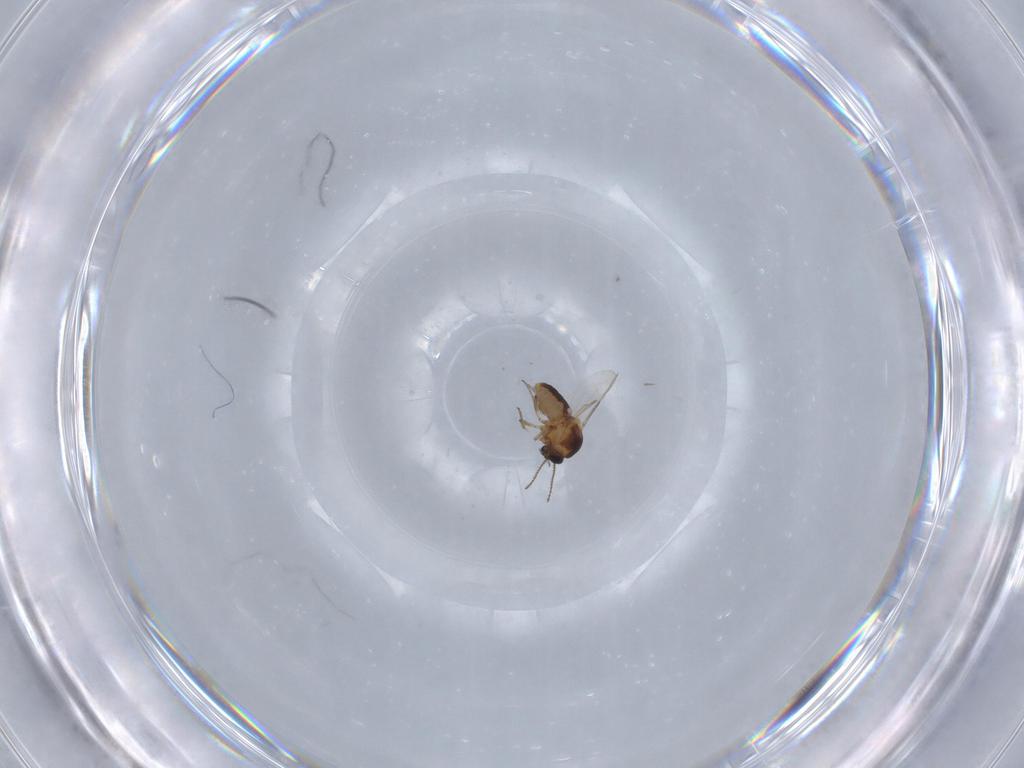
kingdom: Animalia
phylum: Arthropoda
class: Insecta
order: Diptera
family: Ceratopogonidae
